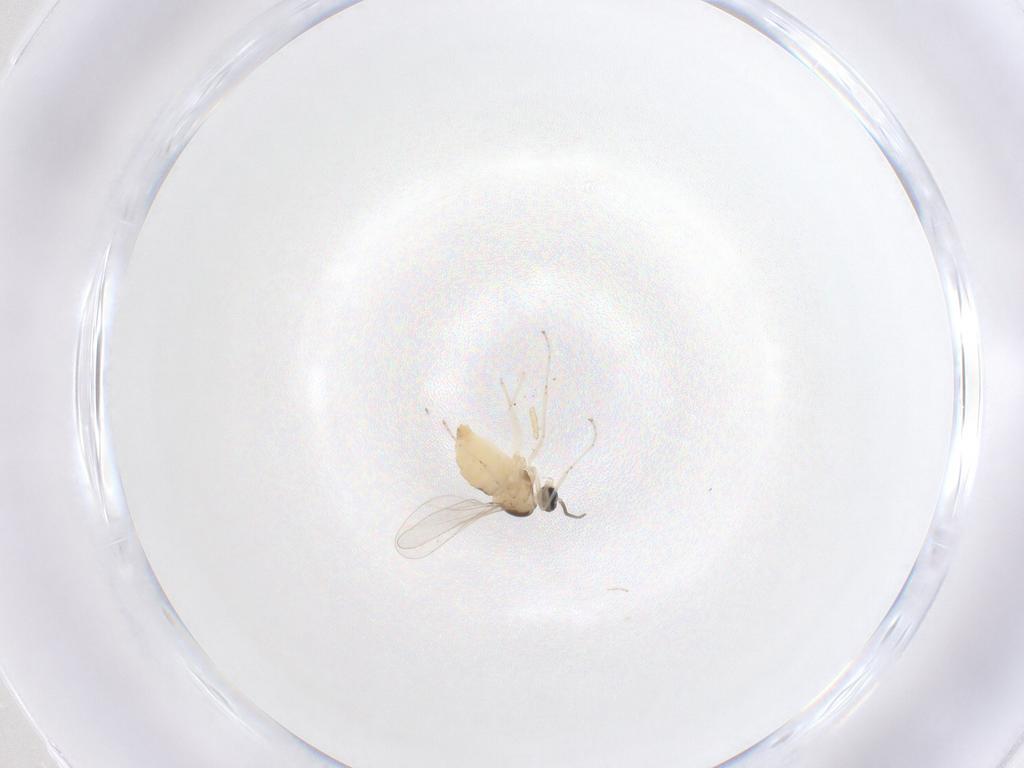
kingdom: Animalia
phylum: Arthropoda
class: Insecta
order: Diptera
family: Cecidomyiidae
